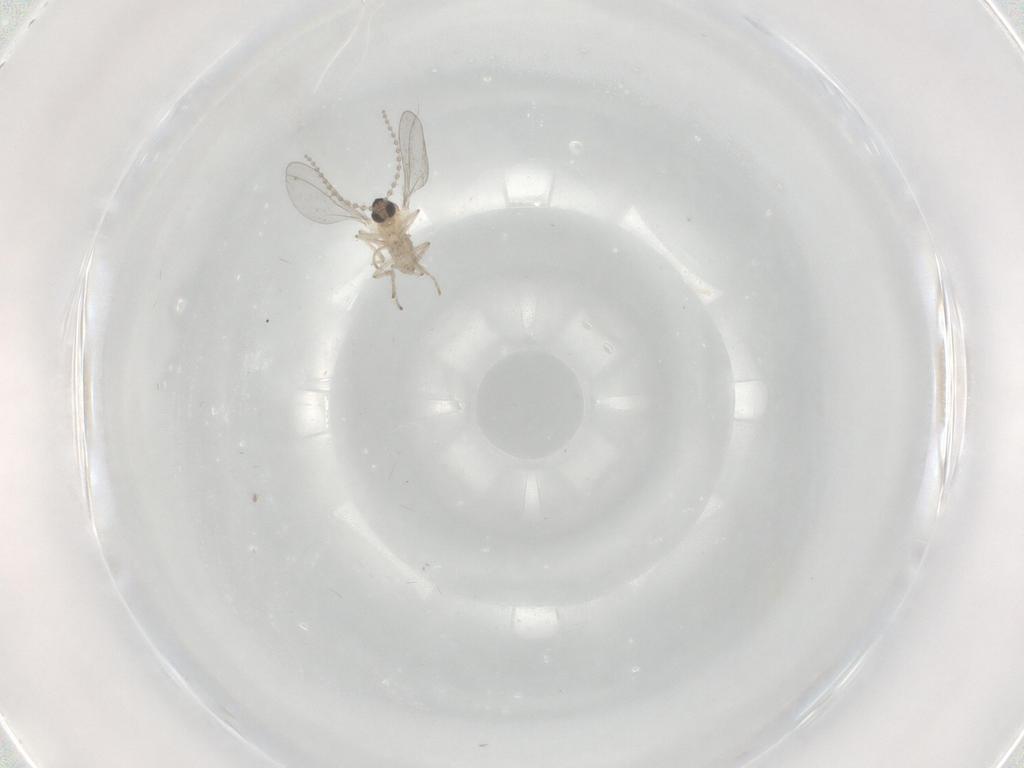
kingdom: Animalia
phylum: Arthropoda
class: Insecta
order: Diptera
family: Cecidomyiidae
